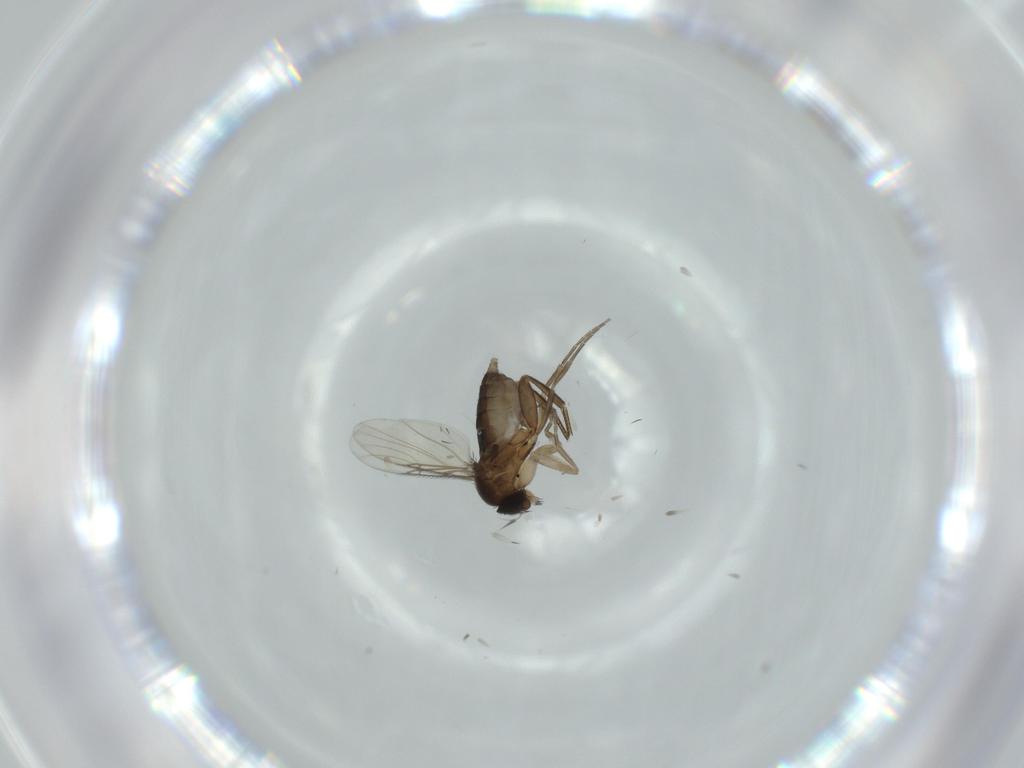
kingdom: Animalia
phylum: Arthropoda
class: Insecta
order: Diptera
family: Phoridae
